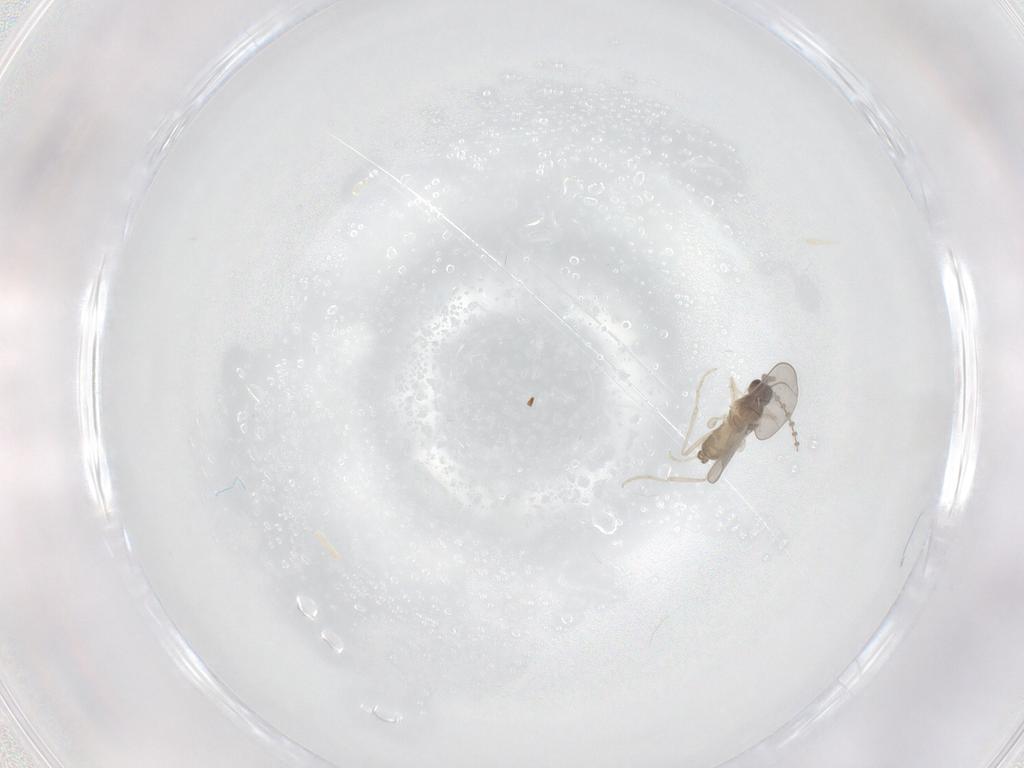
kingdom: Animalia
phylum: Arthropoda
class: Insecta
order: Diptera
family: Cecidomyiidae
